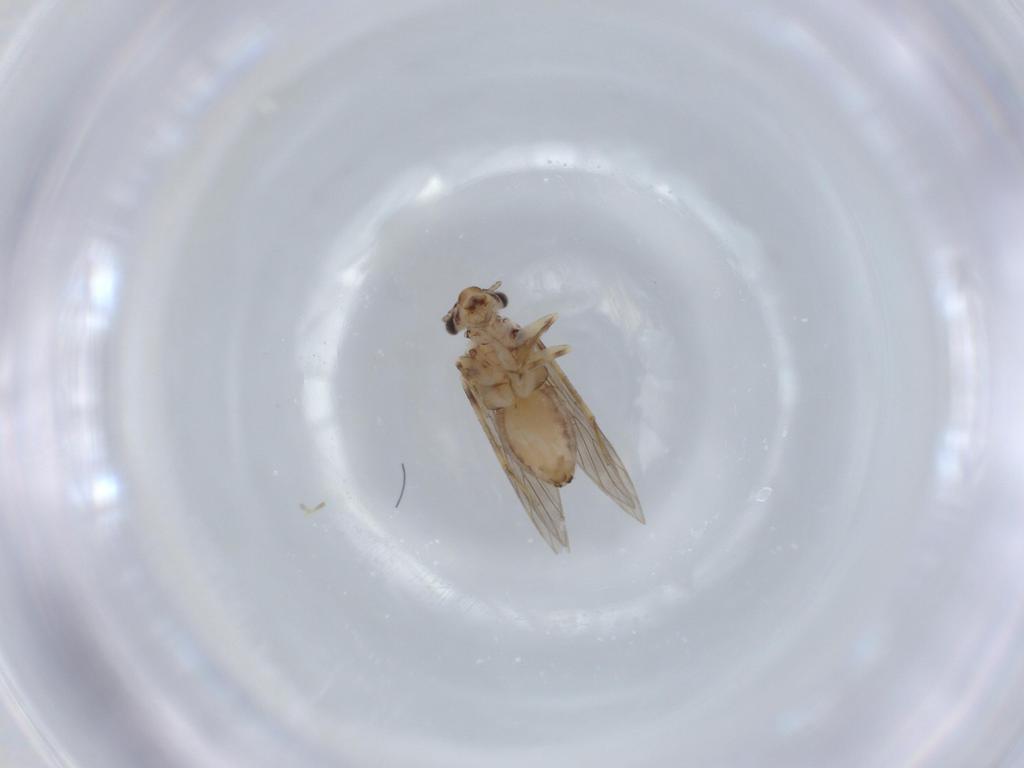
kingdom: Animalia
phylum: Arthropoda
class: Insecta
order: Psocodea
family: Lepidopsocidae
